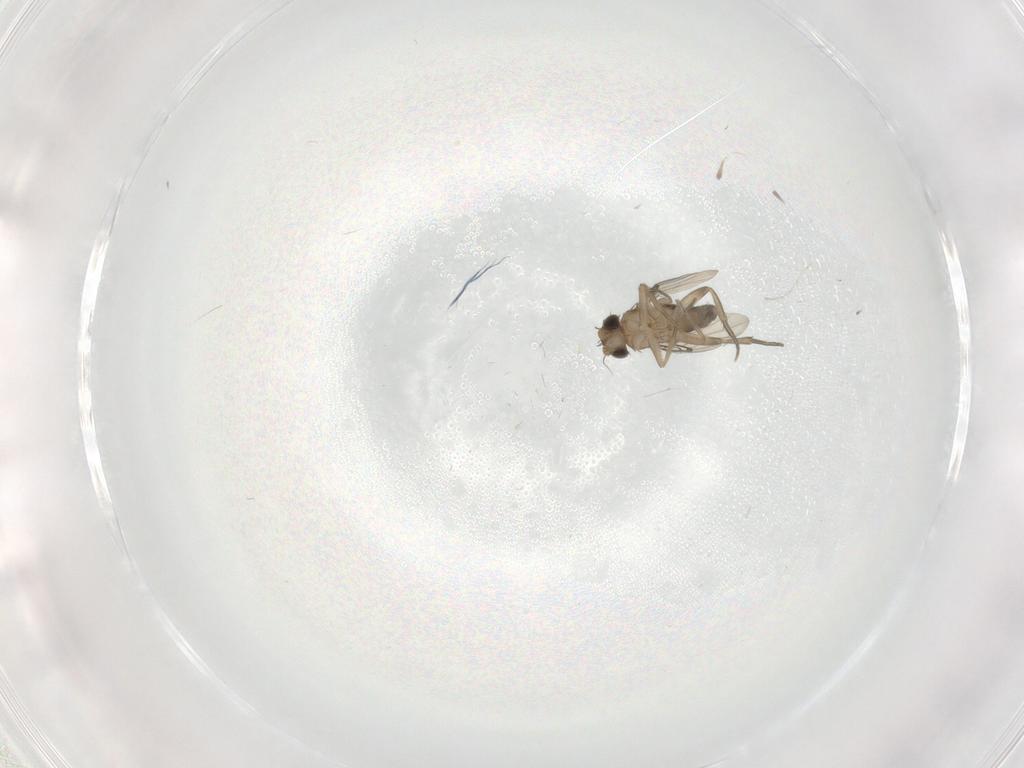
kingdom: Animalia
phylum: Arthropoda
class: Insecta
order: Diptera
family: Phoridae
